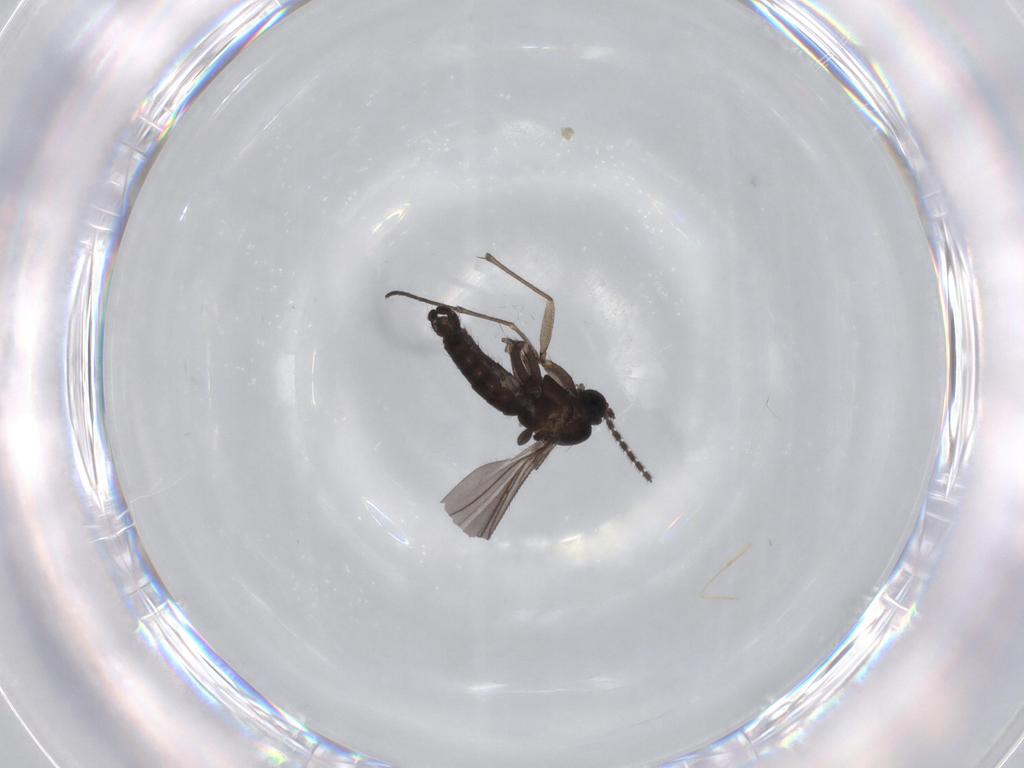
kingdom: Animalia
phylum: Arthropoda
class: Insecta
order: Diptera
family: Sciaridae
